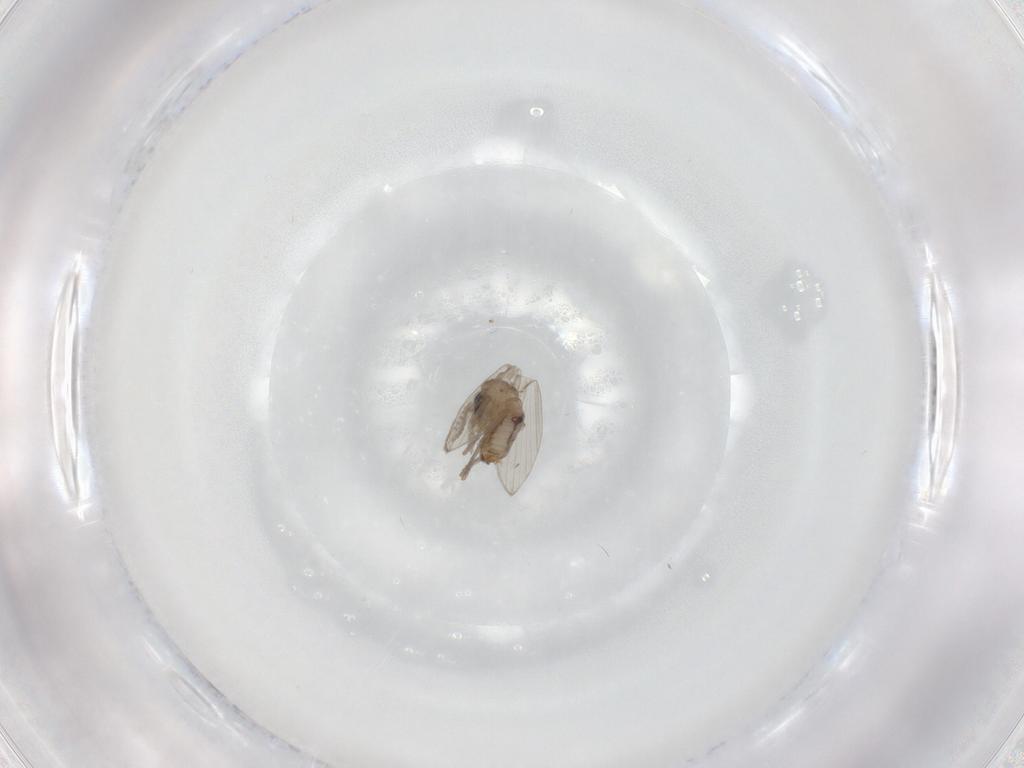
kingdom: Animalia
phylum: Arthropoda
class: Insecta
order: Diptera
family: Psychodidae
